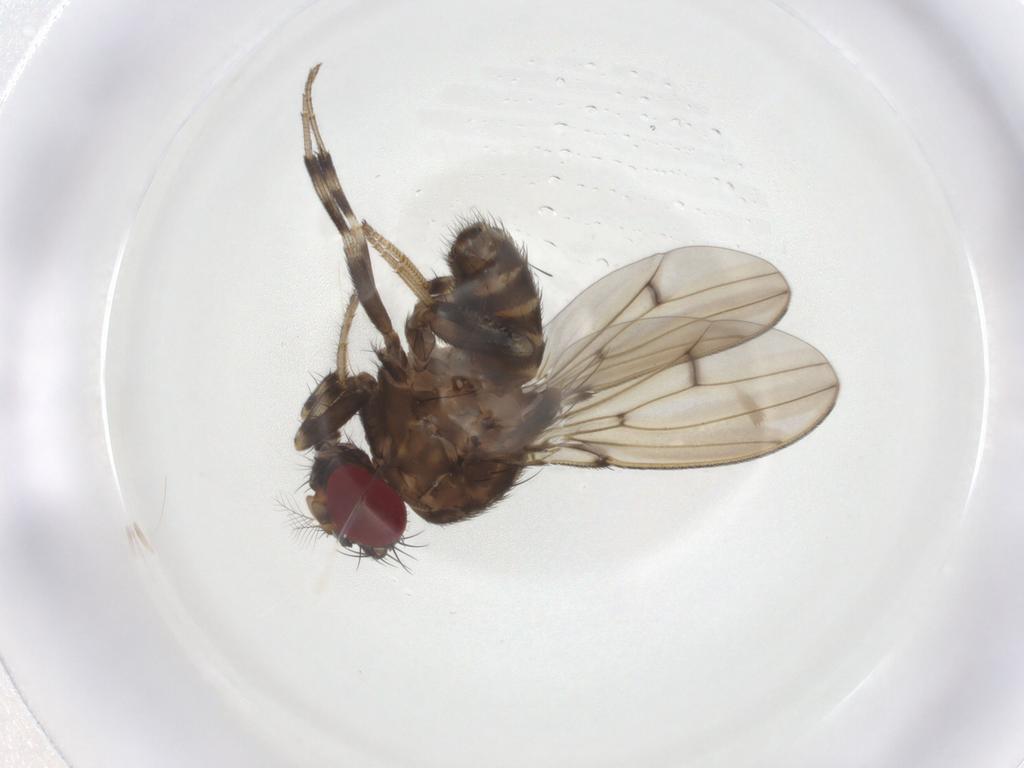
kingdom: Animalia
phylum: Arthropoda
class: Insecta
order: Diptera
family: Drosophilidae
